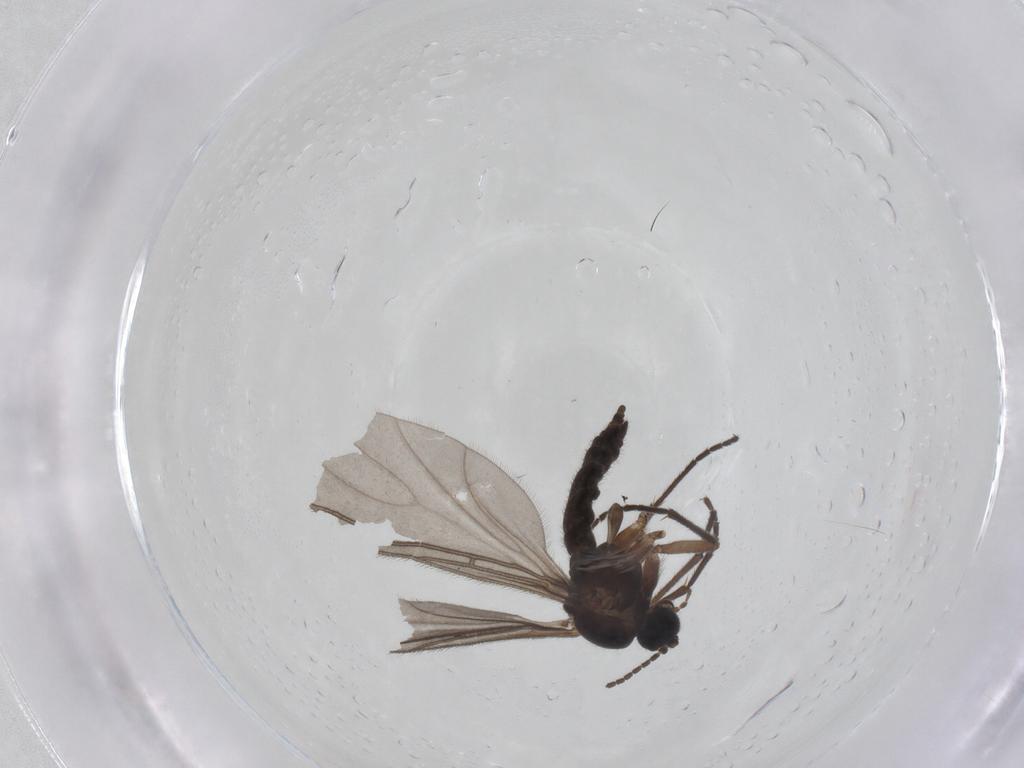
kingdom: Animalia
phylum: Arthropoda
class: Insecta
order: Diptera
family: Sciaridae
